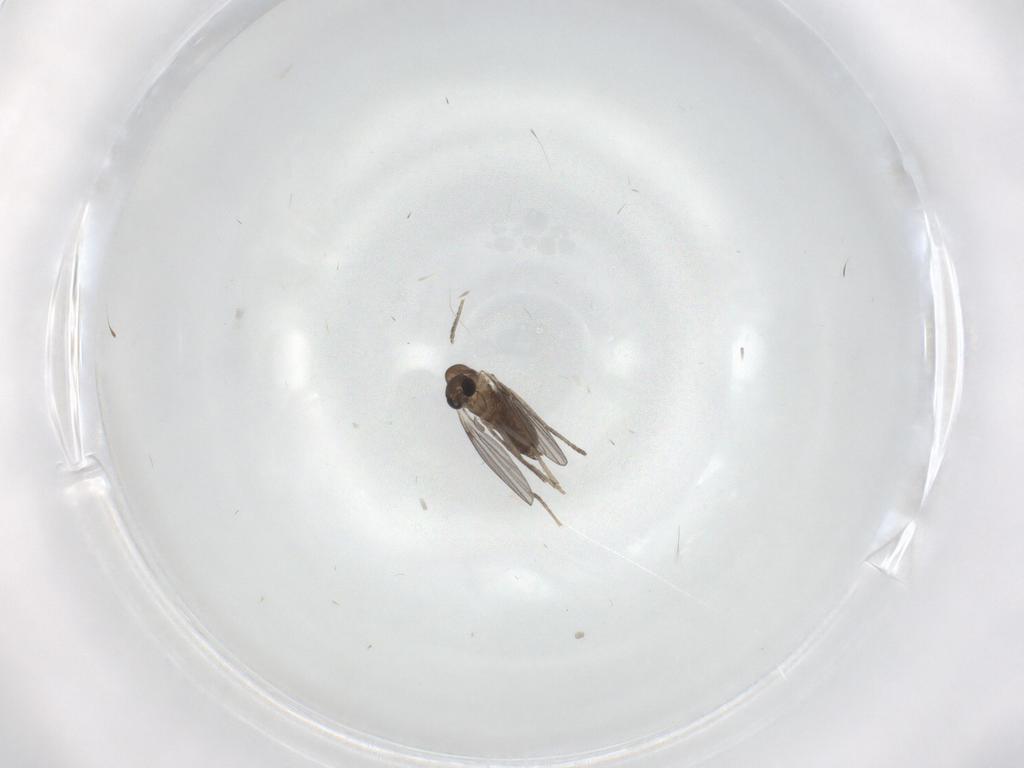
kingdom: Animalia
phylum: Arthropoda
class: Insecta
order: Diptera
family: Psychodidae
